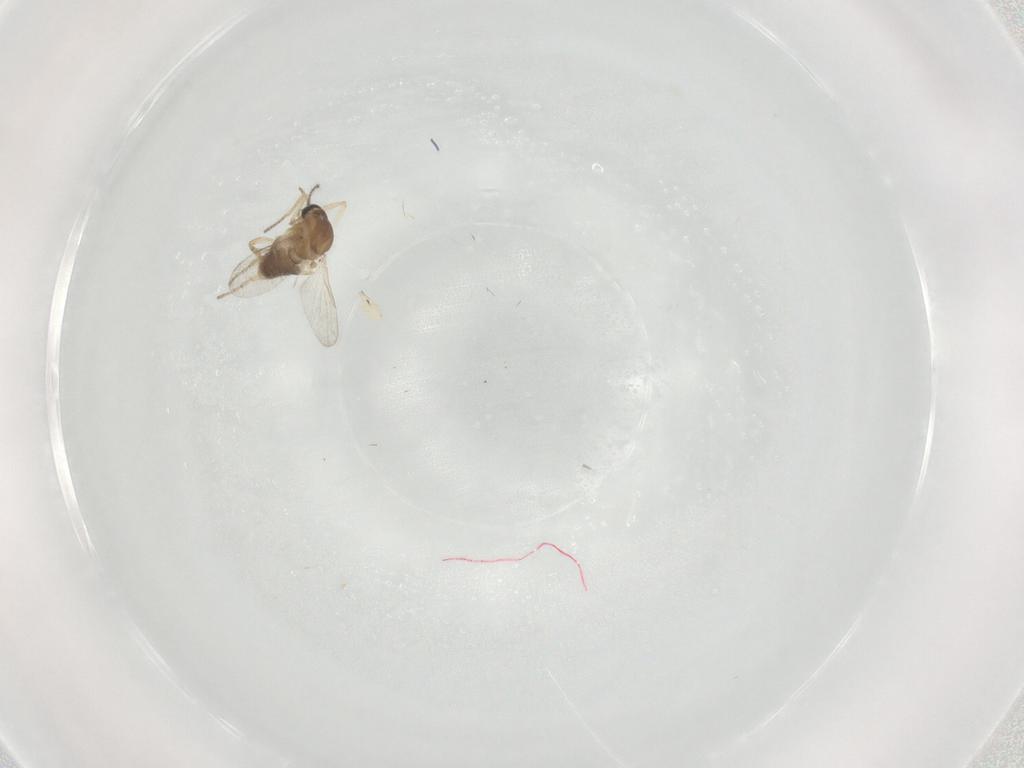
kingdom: Animalia
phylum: Arthropoda
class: Insecta
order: Diptera
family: Ceratopogonidae
